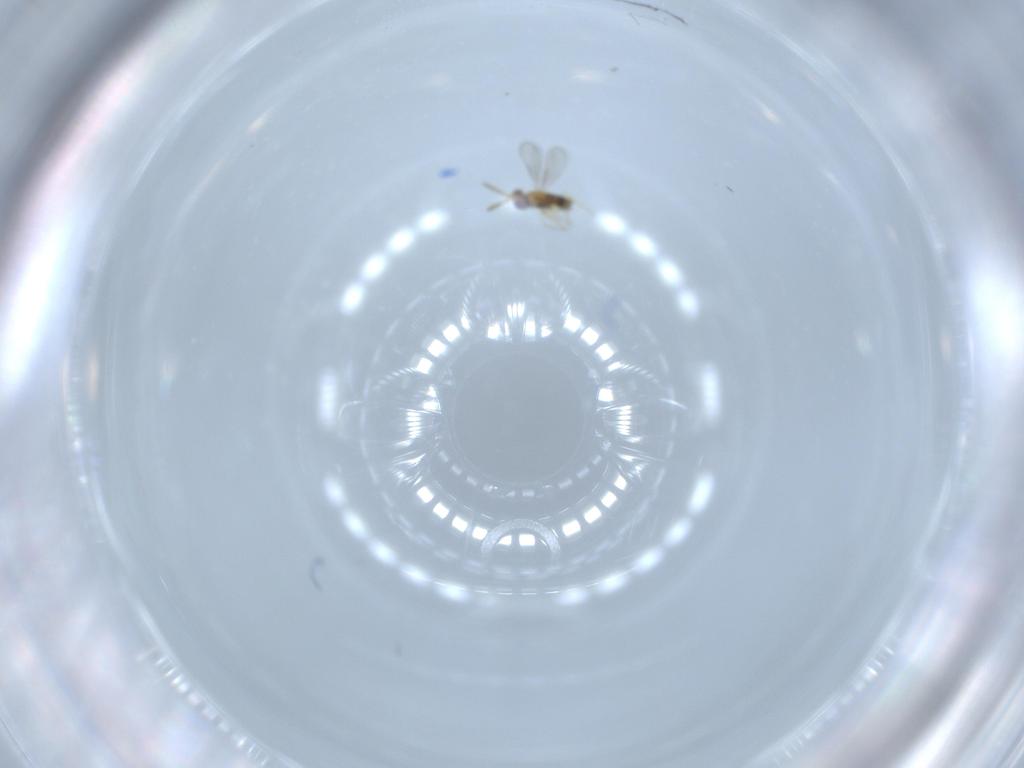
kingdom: Animalia
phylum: Arthropoda
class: Insecta
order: Hymenoptera
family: Aphelinidae
